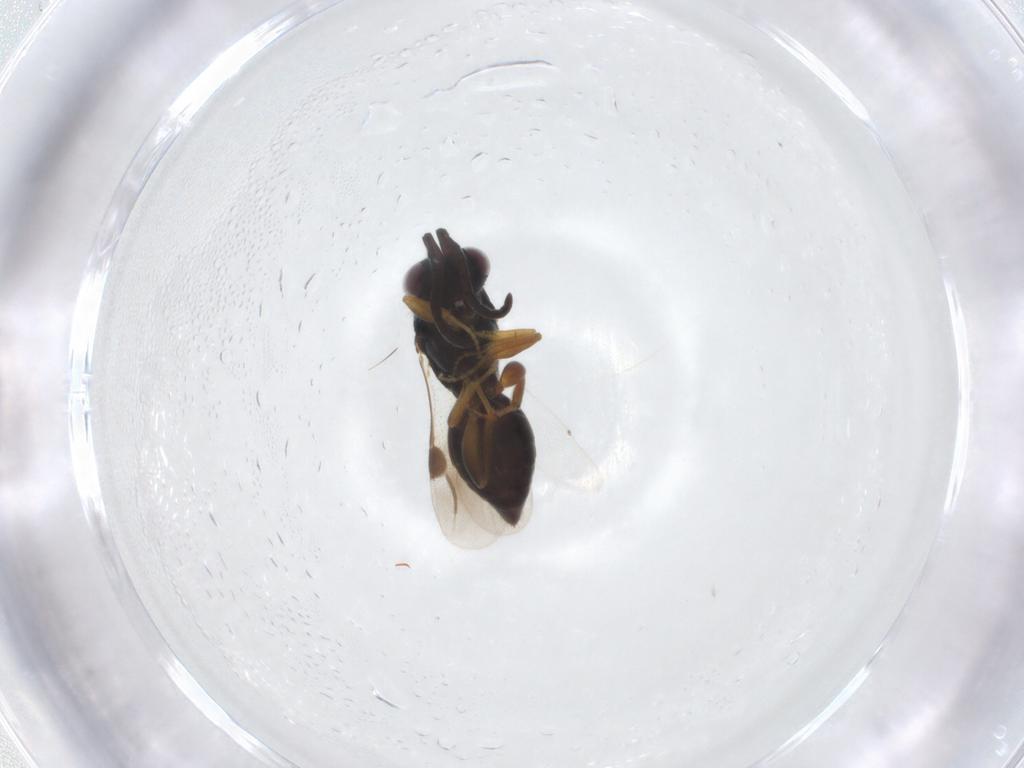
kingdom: Animalia
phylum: Arthropoda
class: Insecta
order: Hymenoptera
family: Megaspilidae
